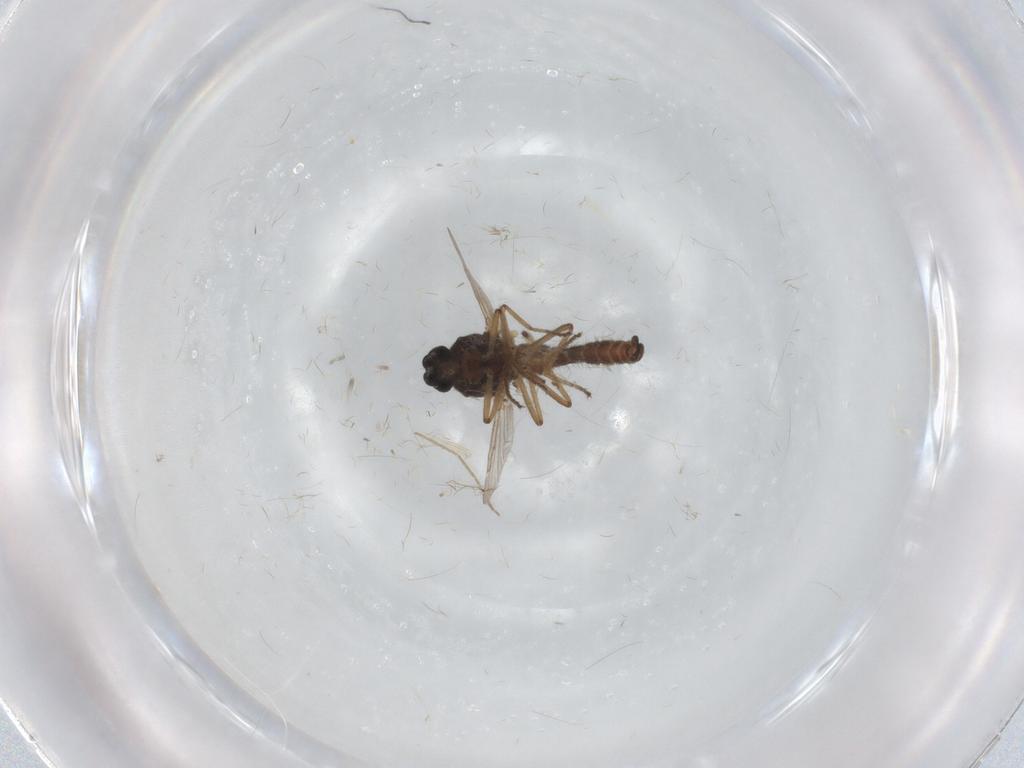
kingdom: Animalia
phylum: Arthropoda
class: Insecta
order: Diptera
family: Ceratopogonidae
